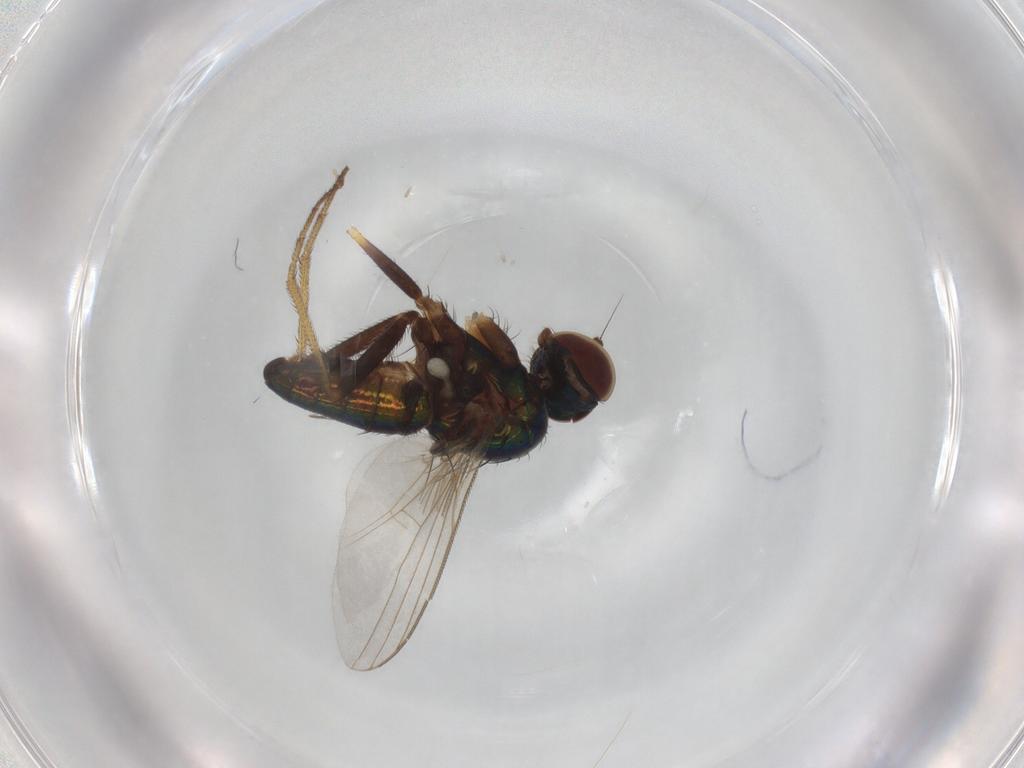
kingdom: Animalia
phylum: Arthropoda
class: Insecta
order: Diptera
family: Dolichopodidae
